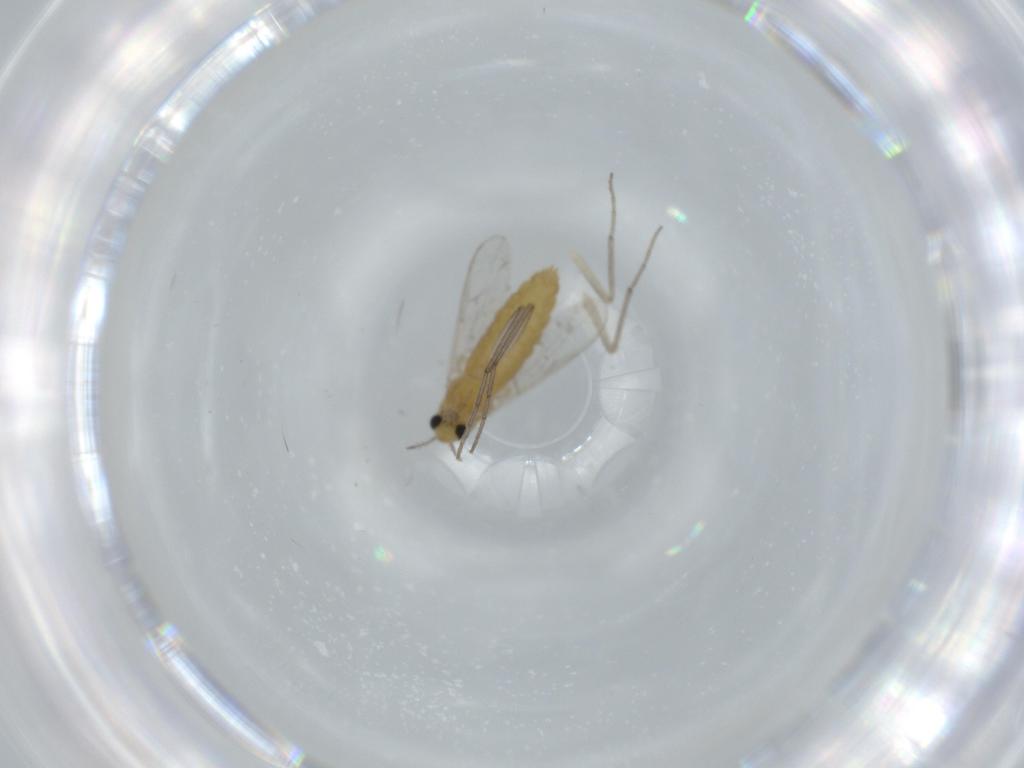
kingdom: Animalia
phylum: Arthropoda
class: Insecta
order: Diptera
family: Chironomidae
